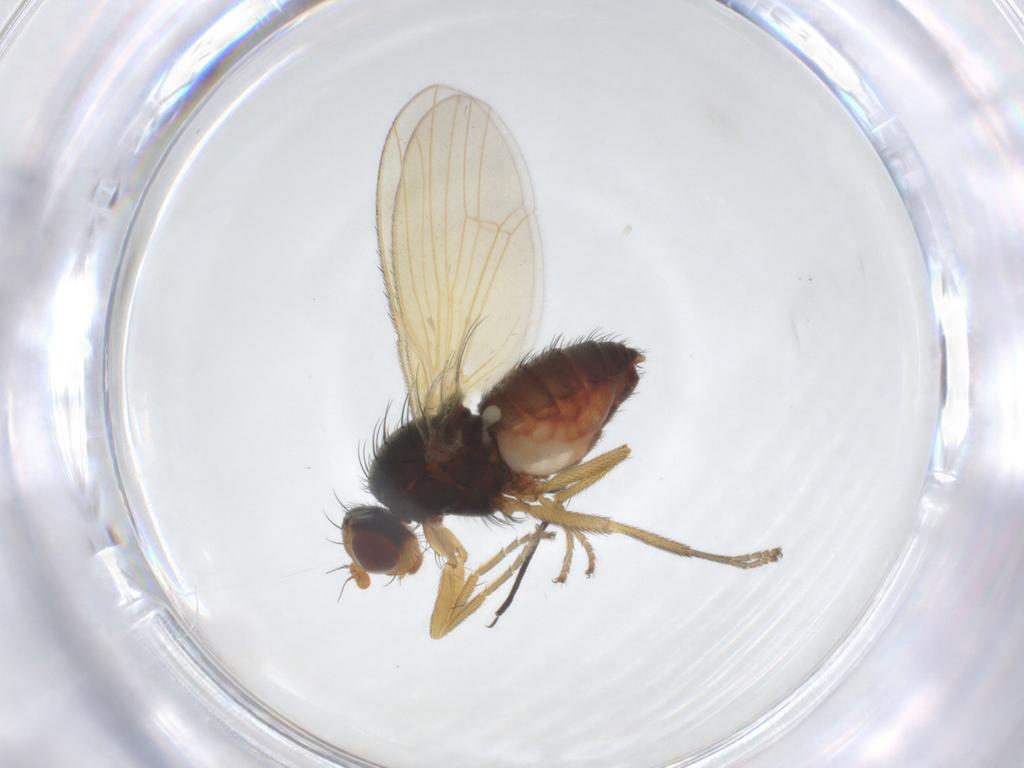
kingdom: Animalia
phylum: Arthropoda
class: Insecta
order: Diptera
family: Heleomyzidae
